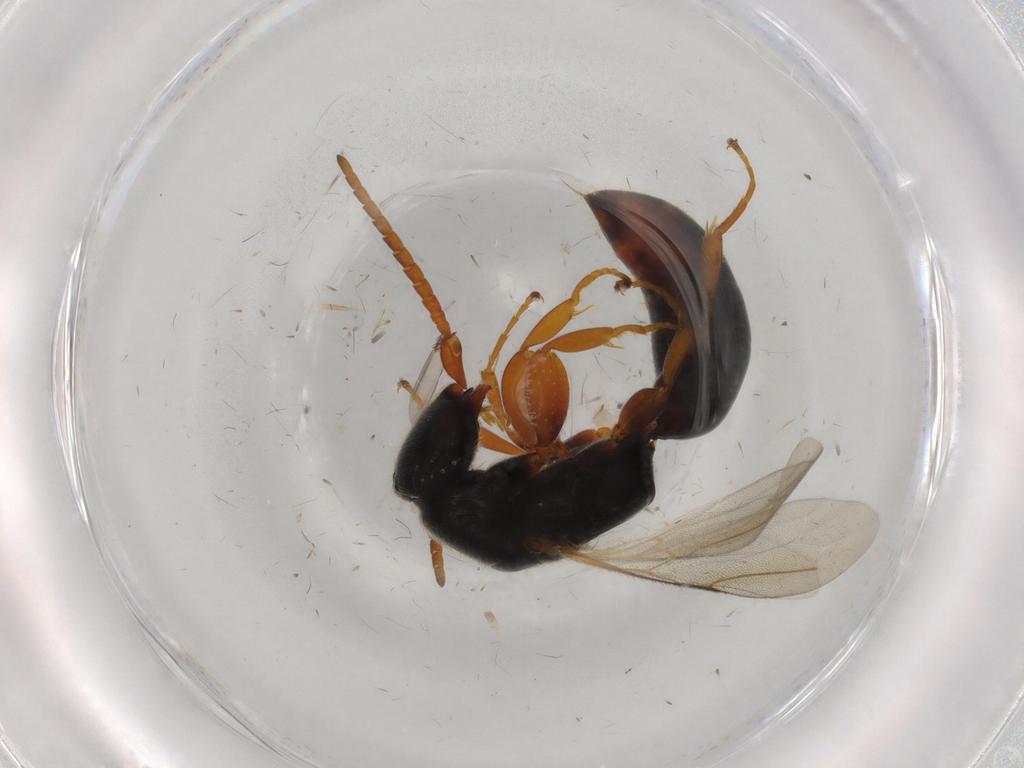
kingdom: Animalia
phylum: Arthropoda
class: Insecta
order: Hymenoptera
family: Bethylidae
